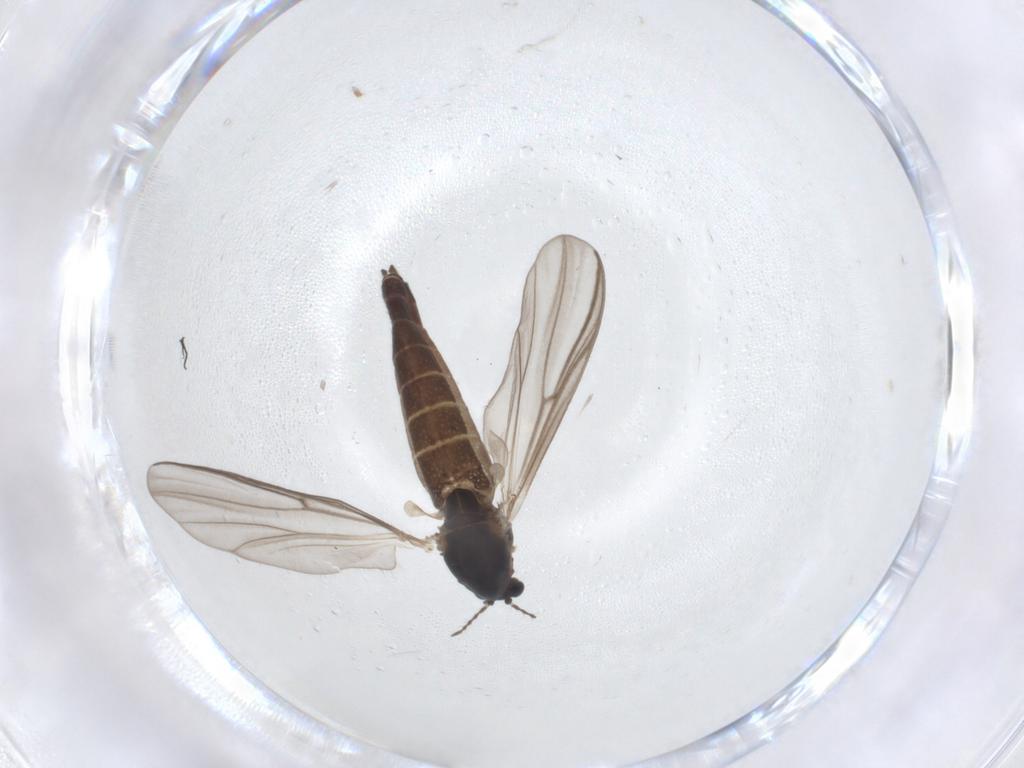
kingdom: Animalia
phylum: Arthropoda
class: Insecta
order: Diptera
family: Chironomidae
